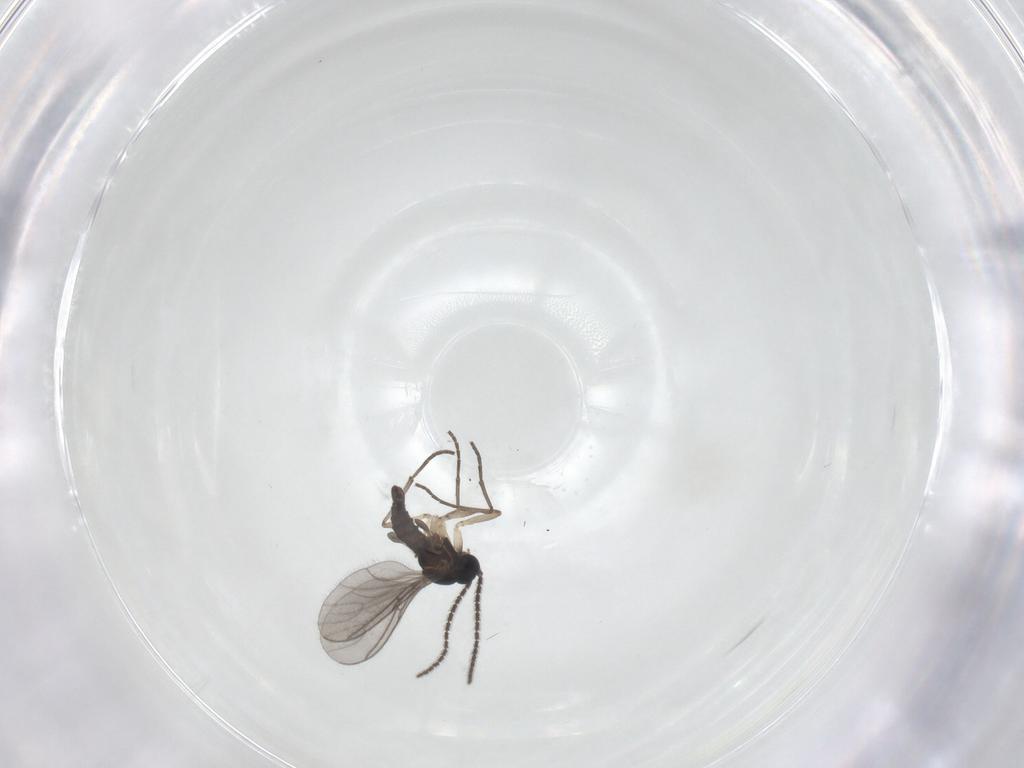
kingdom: Animalia
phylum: Arthropoda
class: Insecta
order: Diptera
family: Sciaridae
